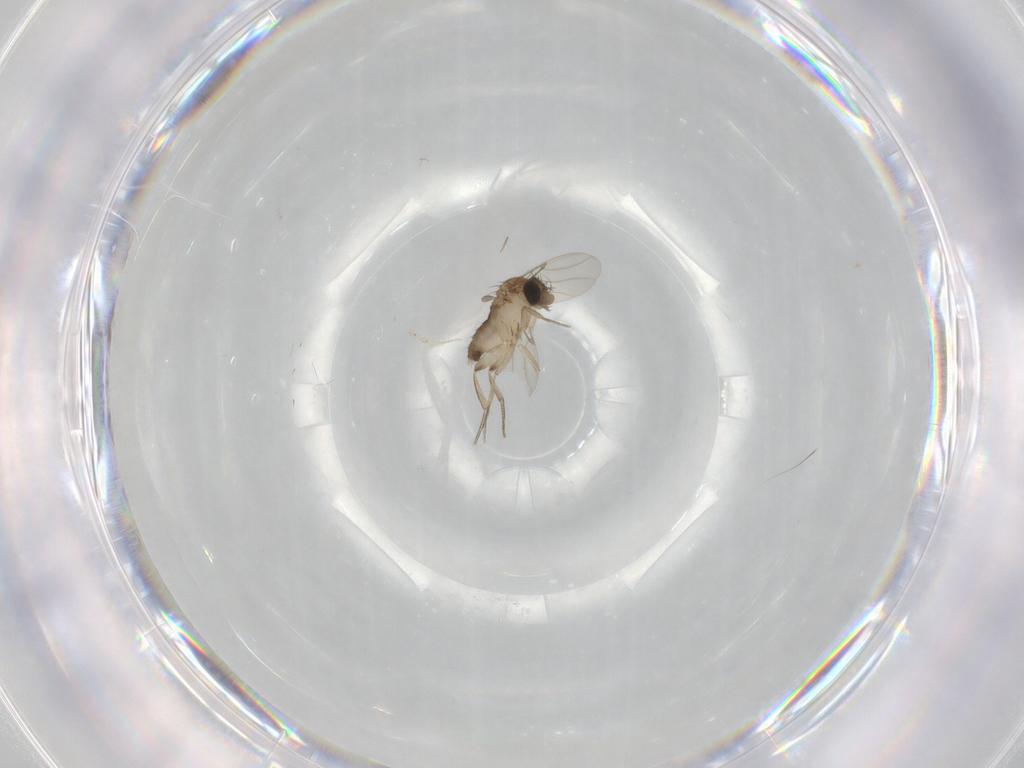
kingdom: Animalia
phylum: Arthropoda
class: Insecta
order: Diptera
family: Phoridae
